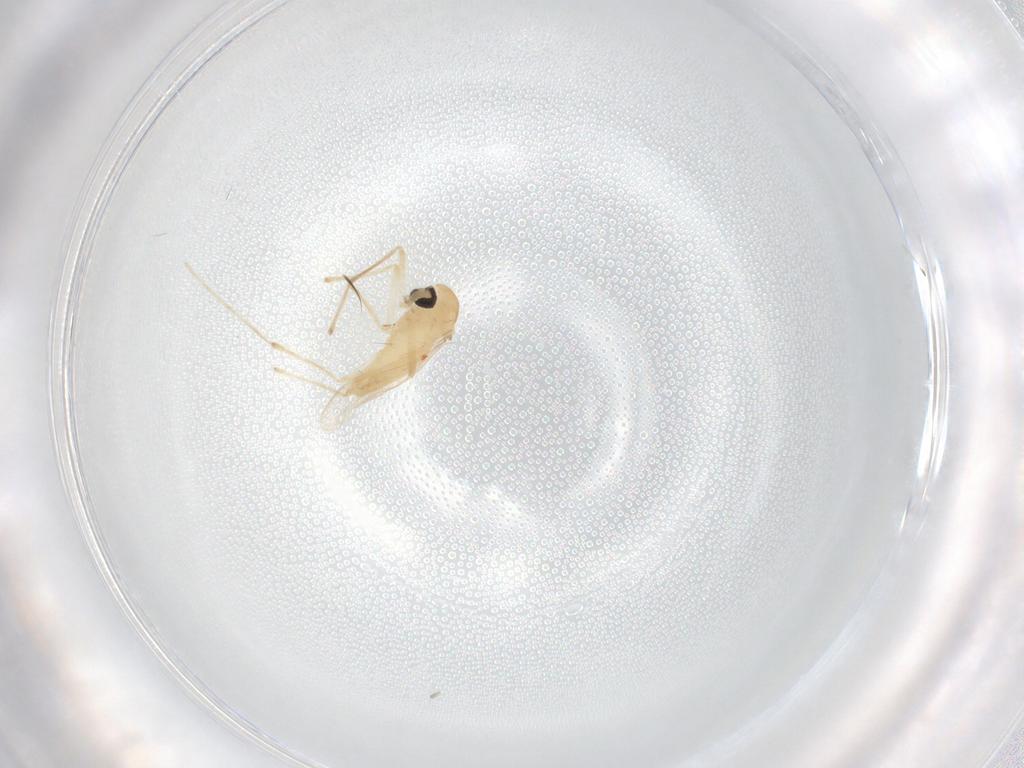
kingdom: Animalia
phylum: Arthropoda
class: Insecta
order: Diptera
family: Chironomidae
